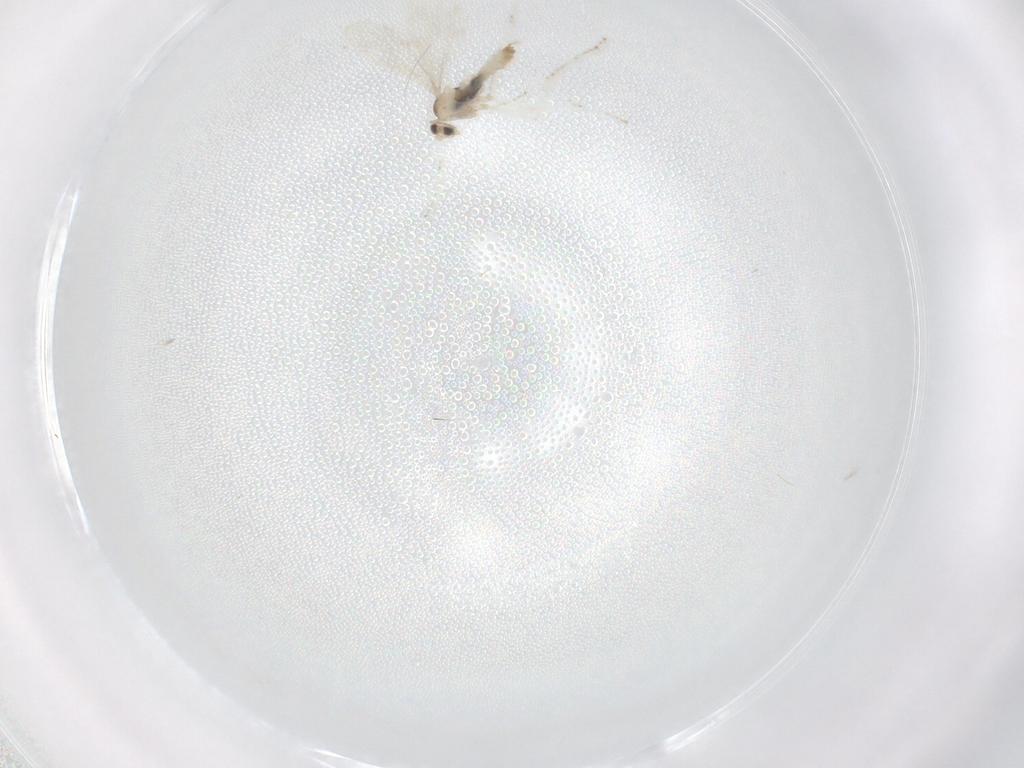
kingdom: Animalia
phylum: Arthropoda
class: Insecta
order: Diptera
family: Cecidomyiidae
